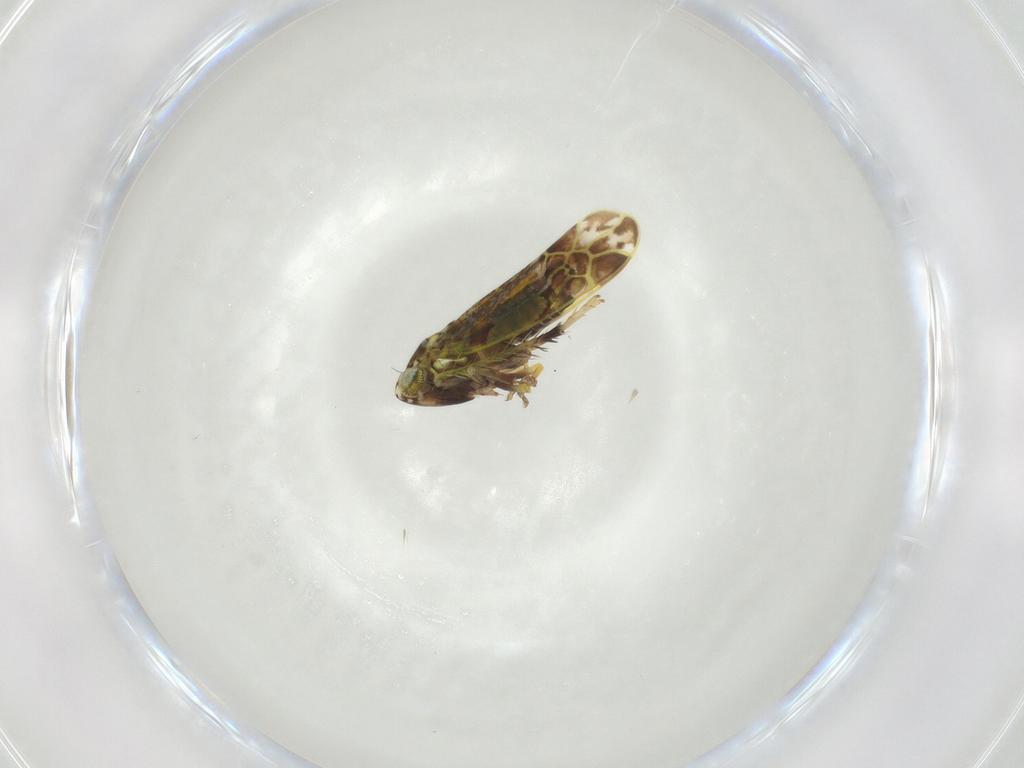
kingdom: Animalia
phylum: Arthropoda
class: Insecta
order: Hemiptera
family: Cicadellidae
